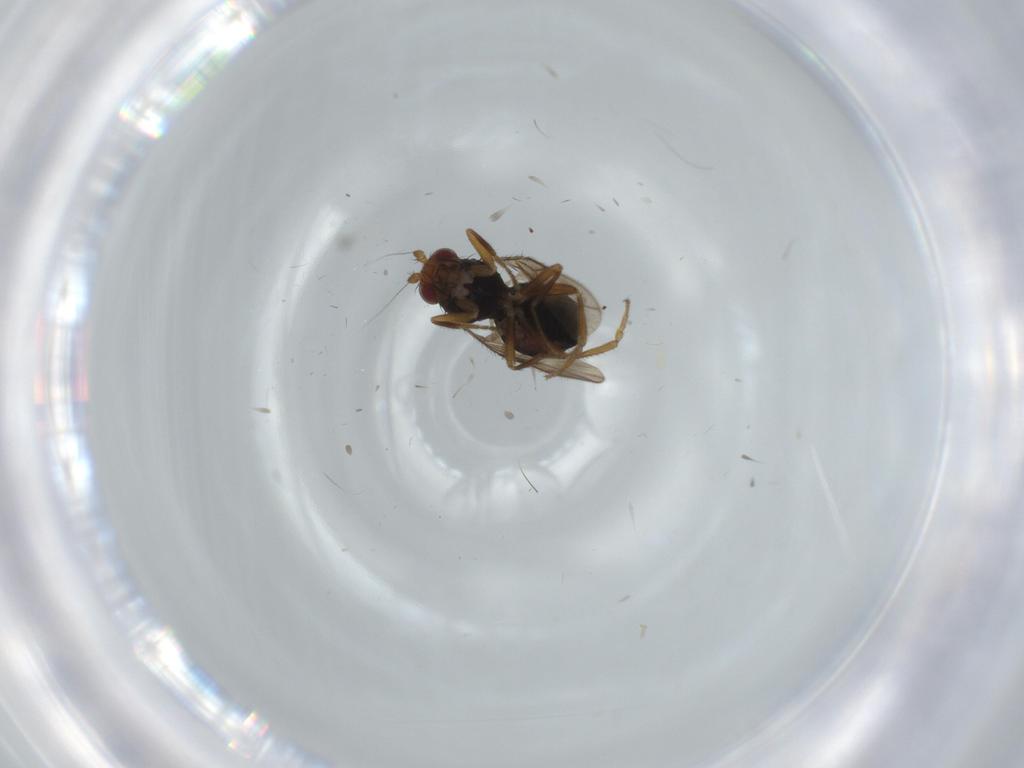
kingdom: Animalia
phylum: Arthropoda
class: Insecta
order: Diptera
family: Sphaeroceridae
